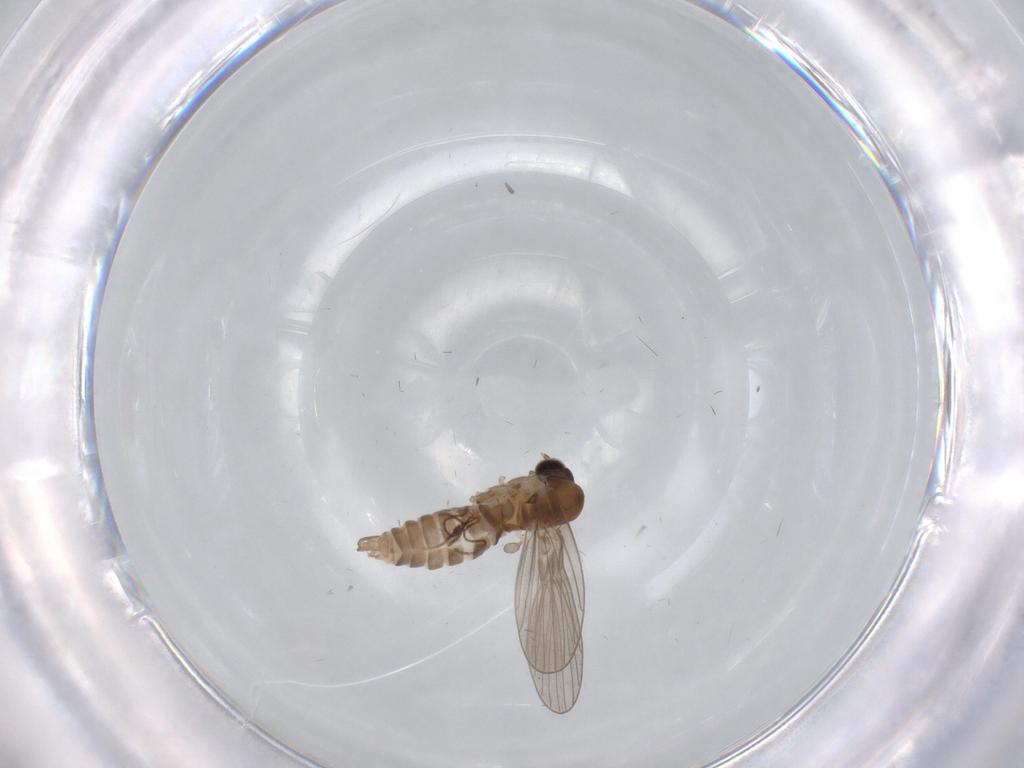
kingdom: Animalia
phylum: Arthropoda
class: Insecta
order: Diptera
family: Psychodidae
